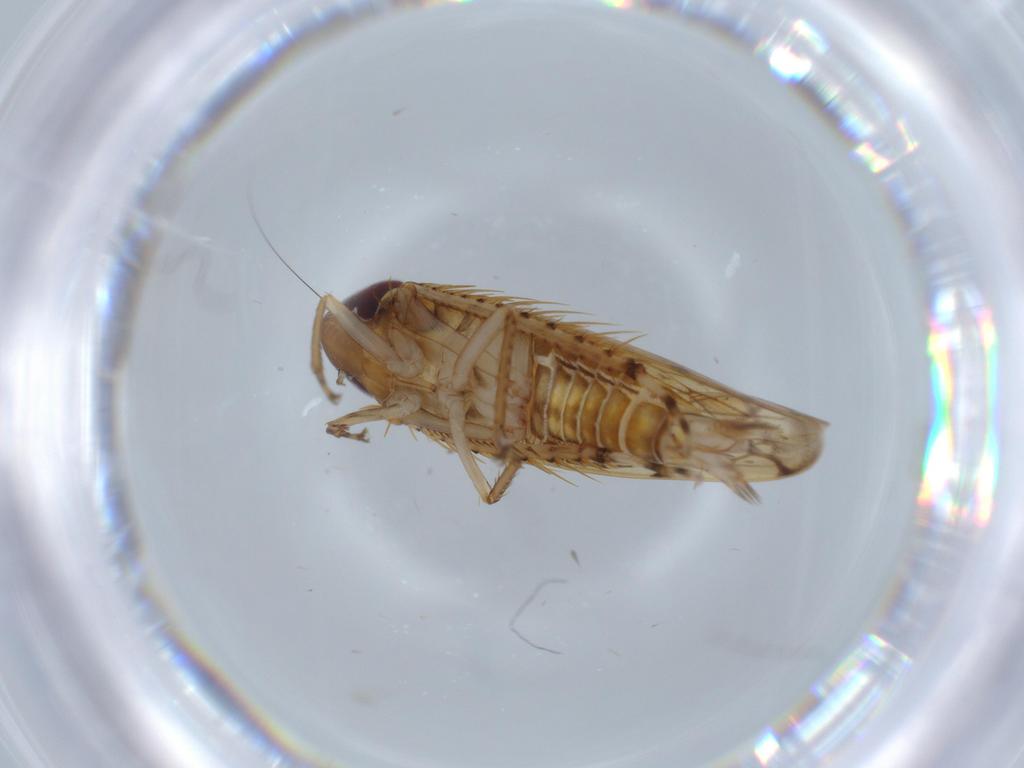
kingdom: Animalia
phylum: Arthropoda
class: Insecta
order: Hemiptera
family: Cicadellidae
